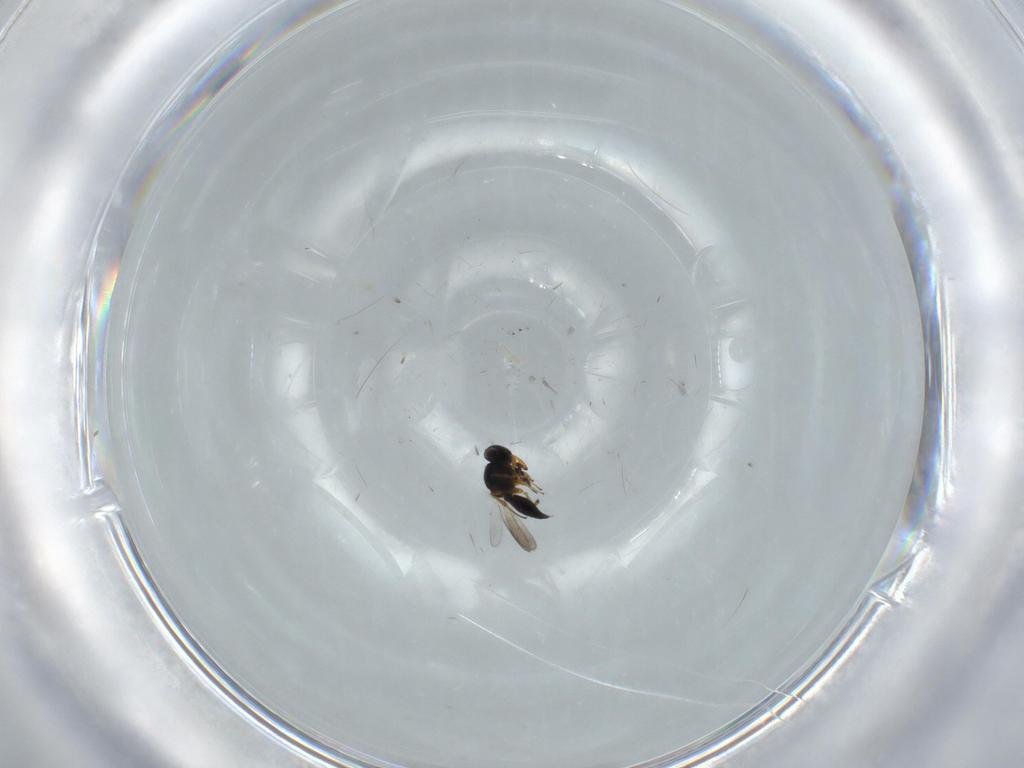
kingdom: Animalia
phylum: Arthropoda
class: Insecta
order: Hymenoptera
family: Platygastridae
